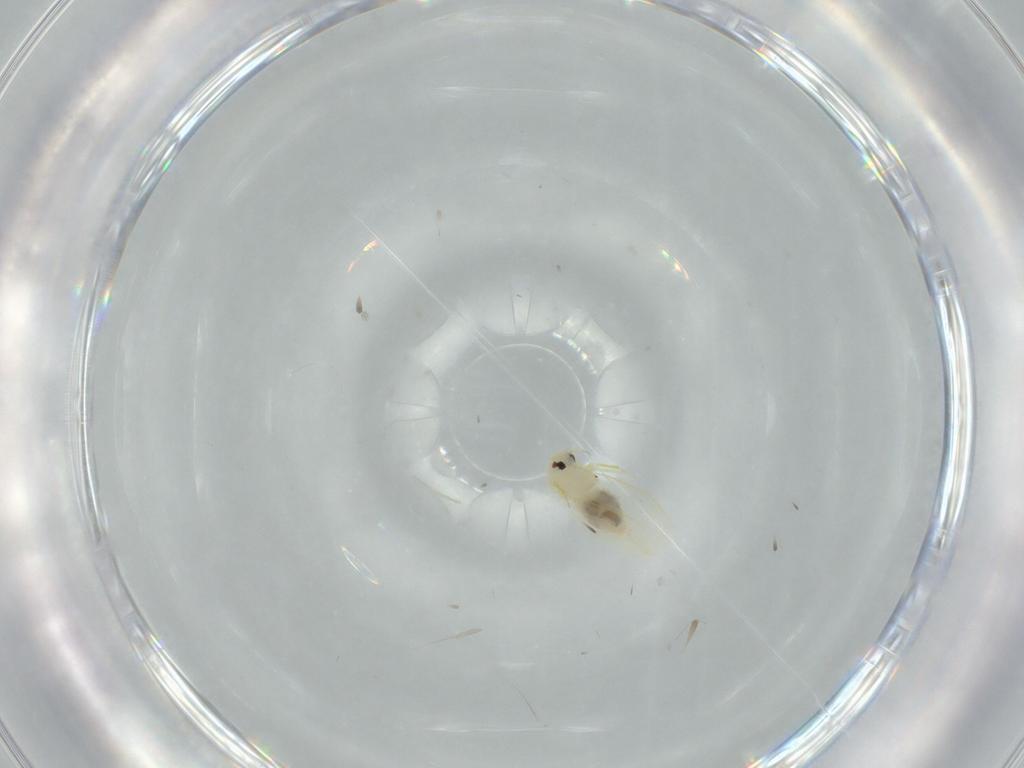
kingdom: Animalia
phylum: Arthropoda
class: Insecta
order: Hemiptera
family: Aleyrodidae
